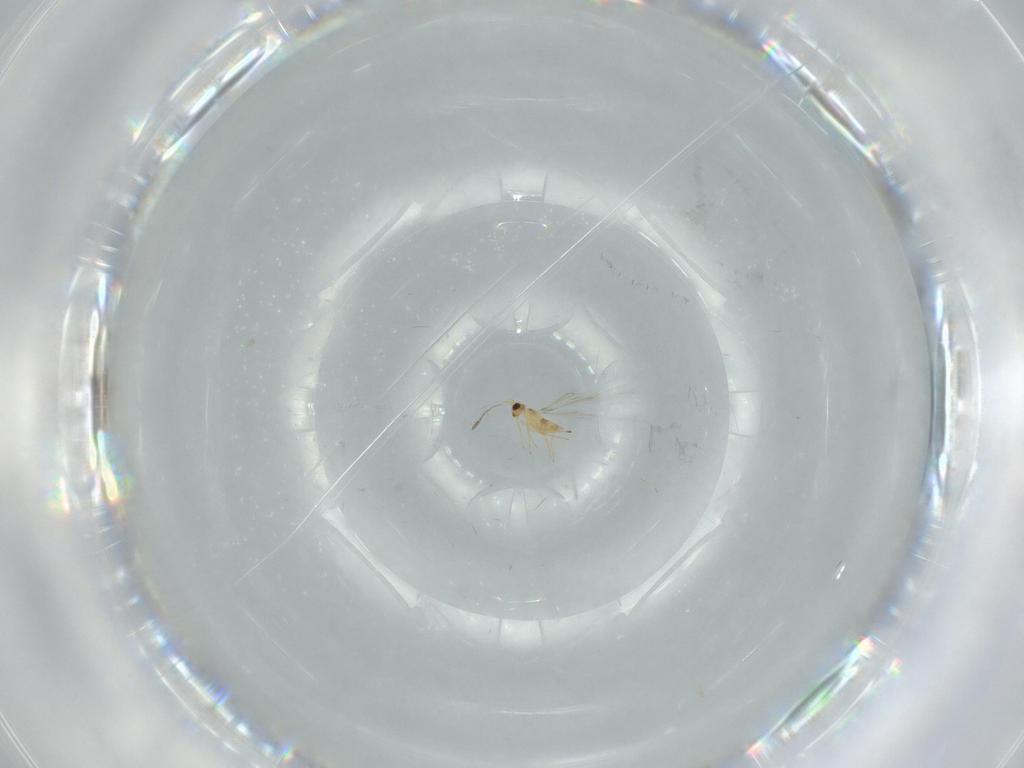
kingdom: Animalia
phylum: Arthropoda
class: Insecta
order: Hymenoptera
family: Mymaridae
